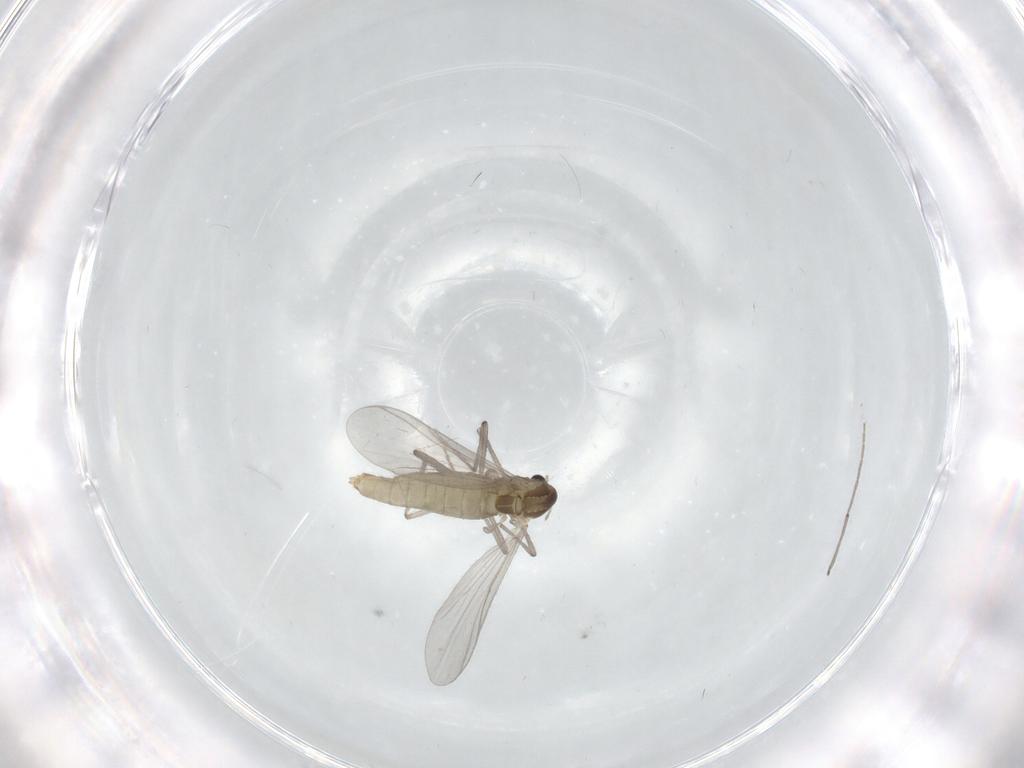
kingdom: Animalia
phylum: Arthropoda
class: Insecta
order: Diptera
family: Chironomidae
